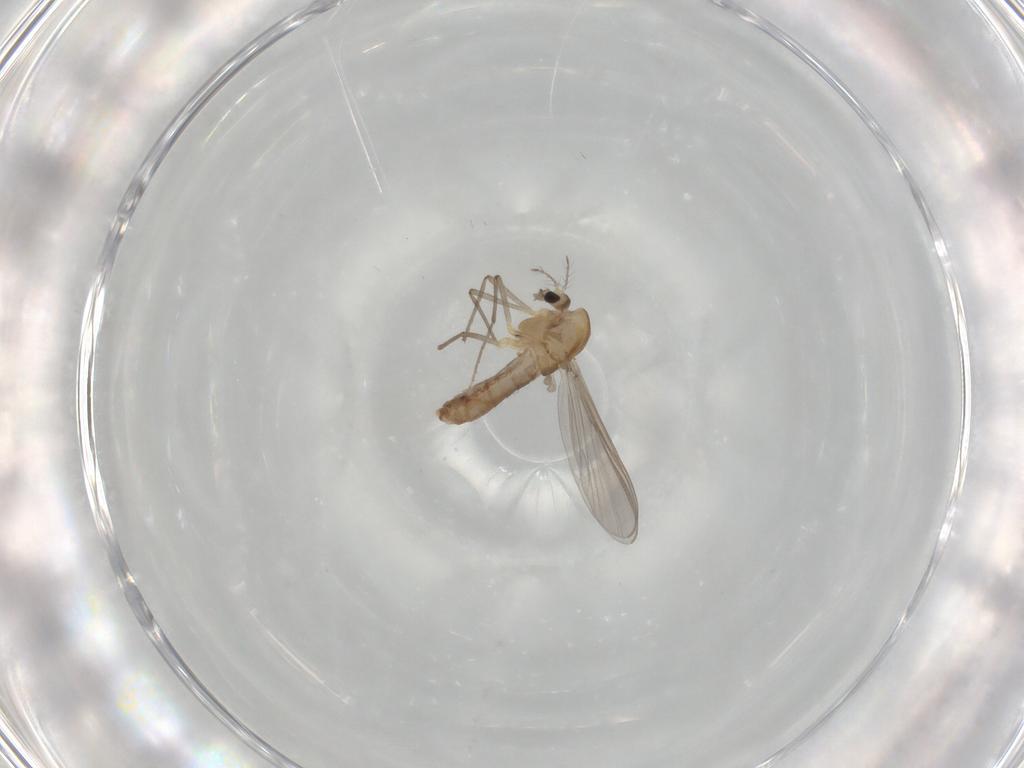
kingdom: Animalia
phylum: Arthropoda
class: Insecta
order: Diptera
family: Chironomidae
